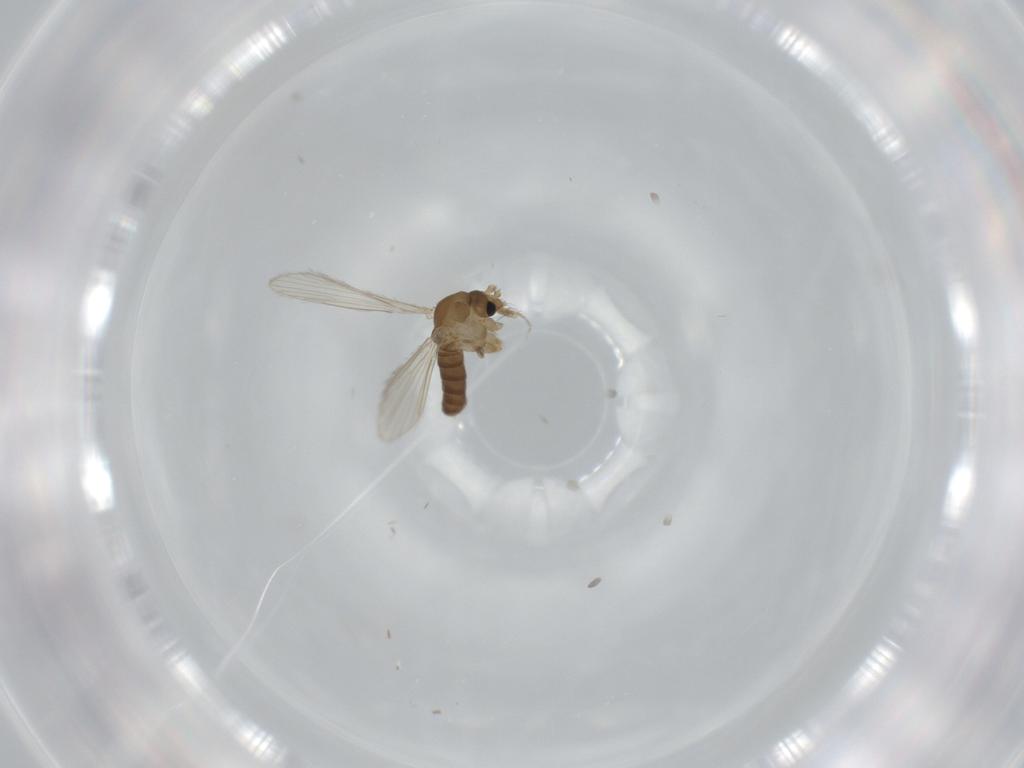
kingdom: Animalia
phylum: Arthropoda
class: Insecta
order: Diptera
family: Psychodidae
